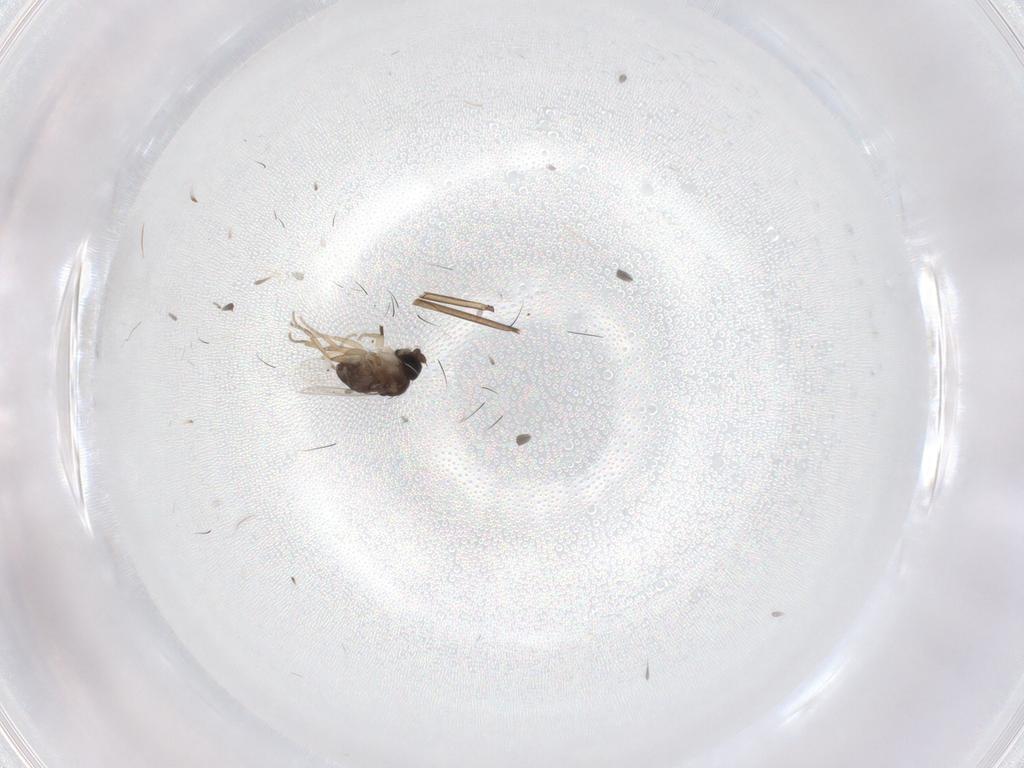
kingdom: Animalia
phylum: Arthropoda
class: Insecta
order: Diptera
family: Phoridae
